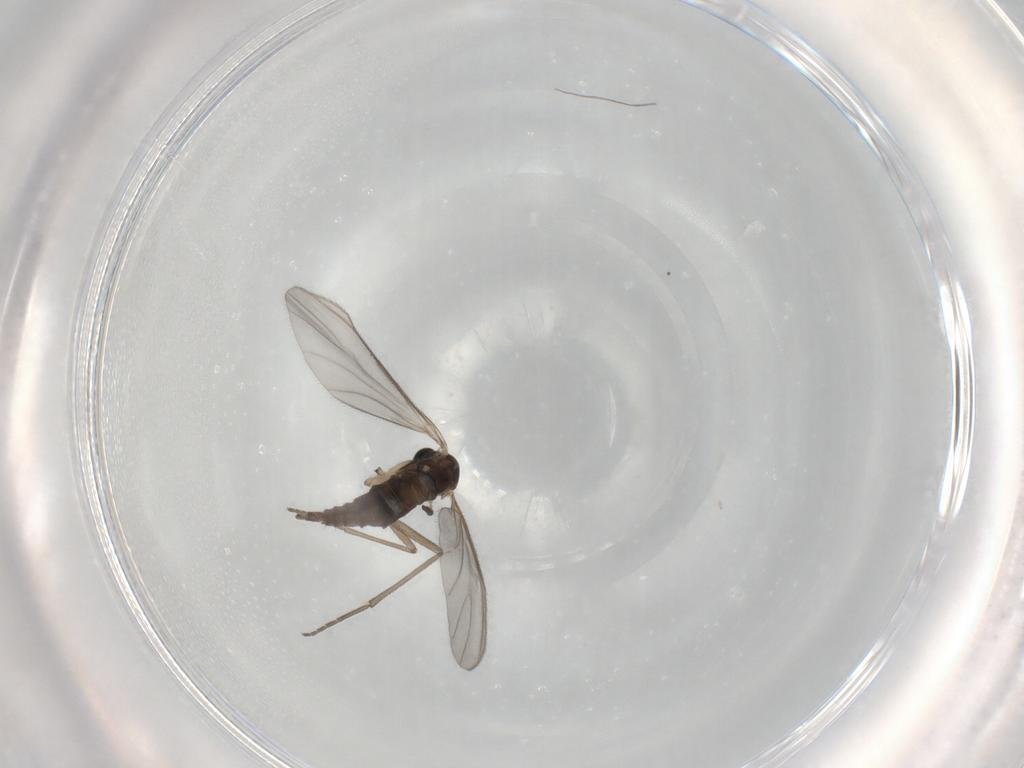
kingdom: Animalia
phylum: Arthropoda
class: Insecta
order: Diptera
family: Sciaridae
